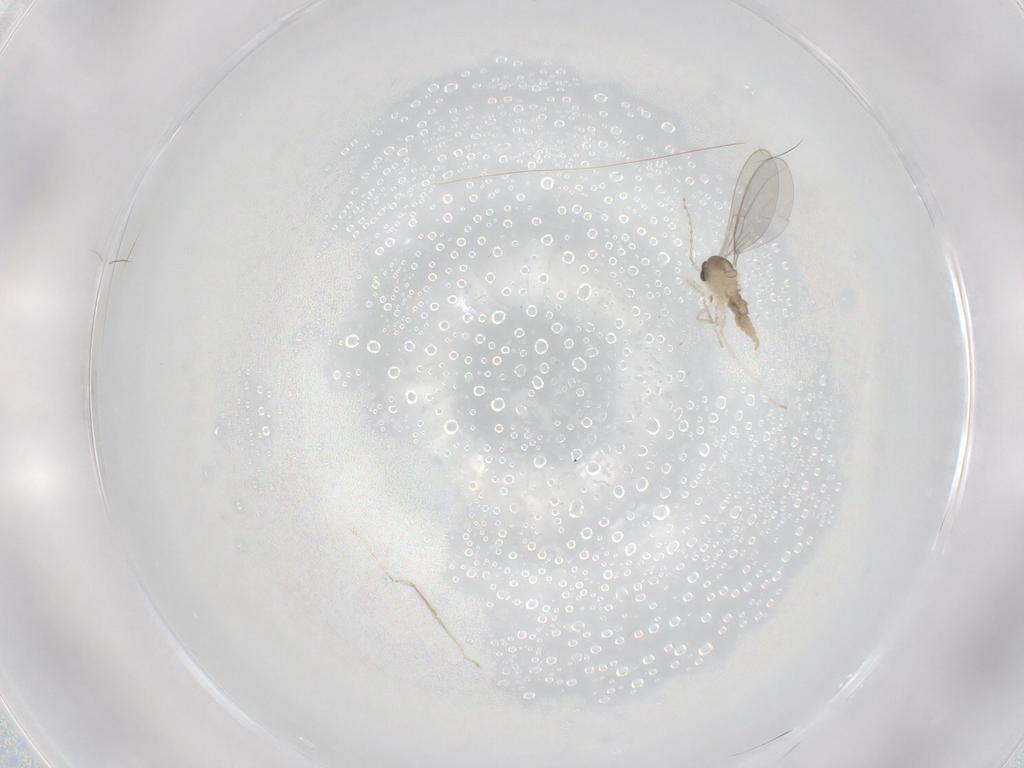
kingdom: Animalia
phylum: Arthropoda
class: Insecta
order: Diptera
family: Cecidomyiidae
